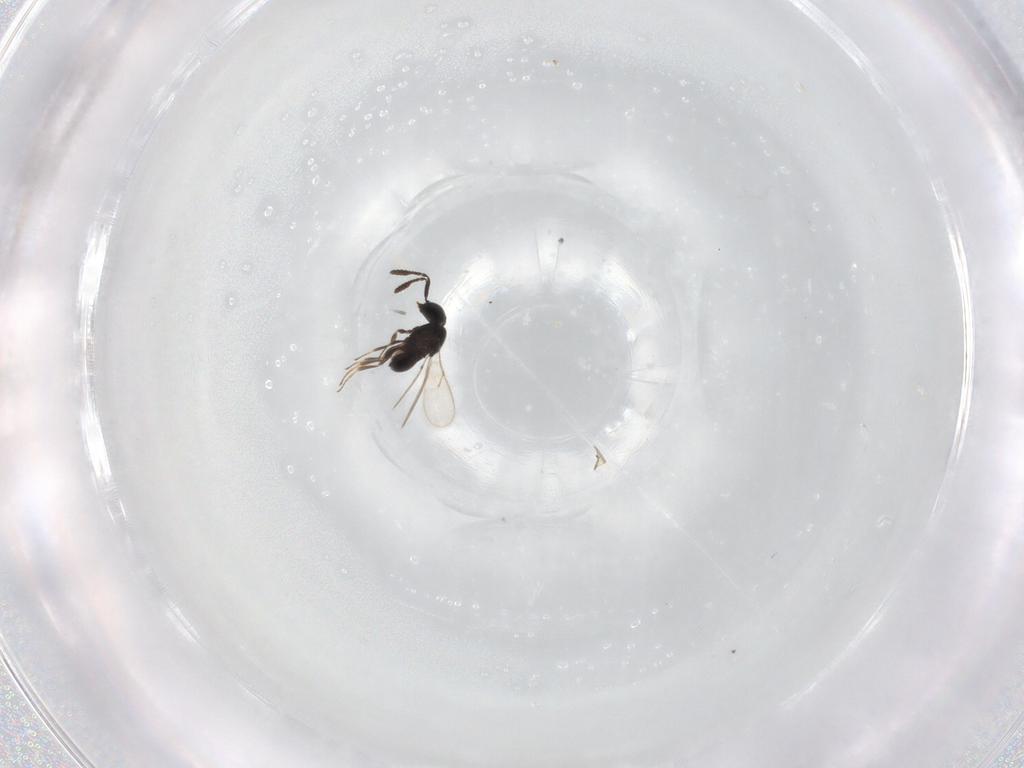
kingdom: Animalia
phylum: Arthropoda
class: Insecta
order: Hymenoptera
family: Scelionidae
